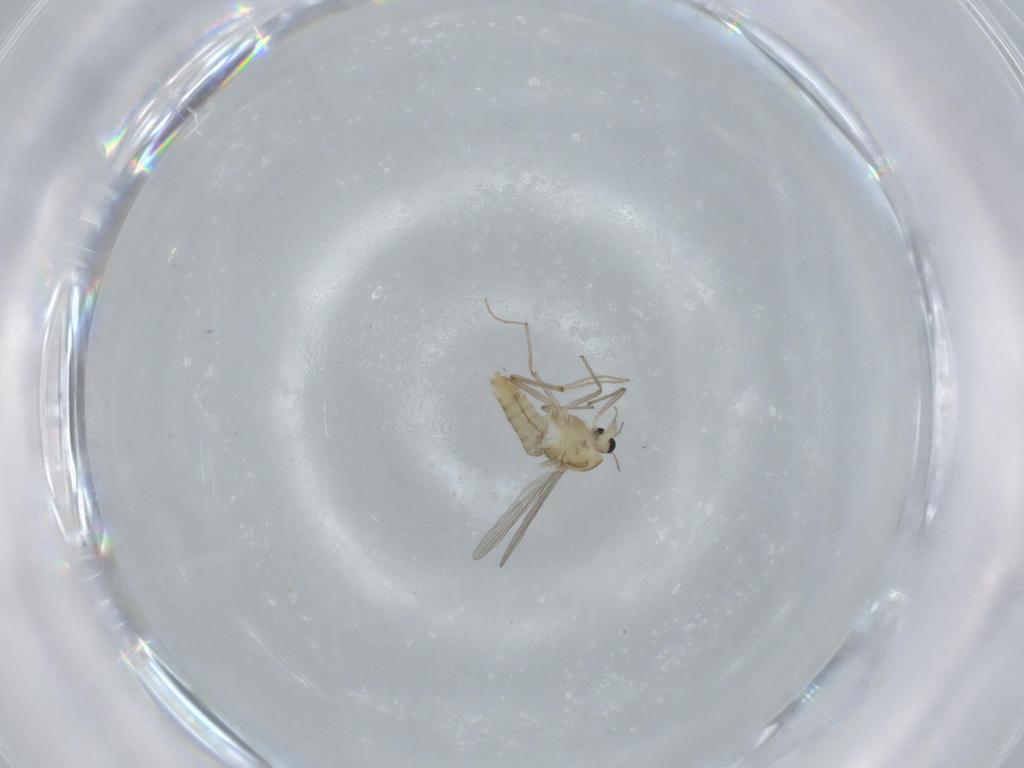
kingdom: Animalia
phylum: Arthropoda
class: Insecta
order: Diptera
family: Chironomidae
